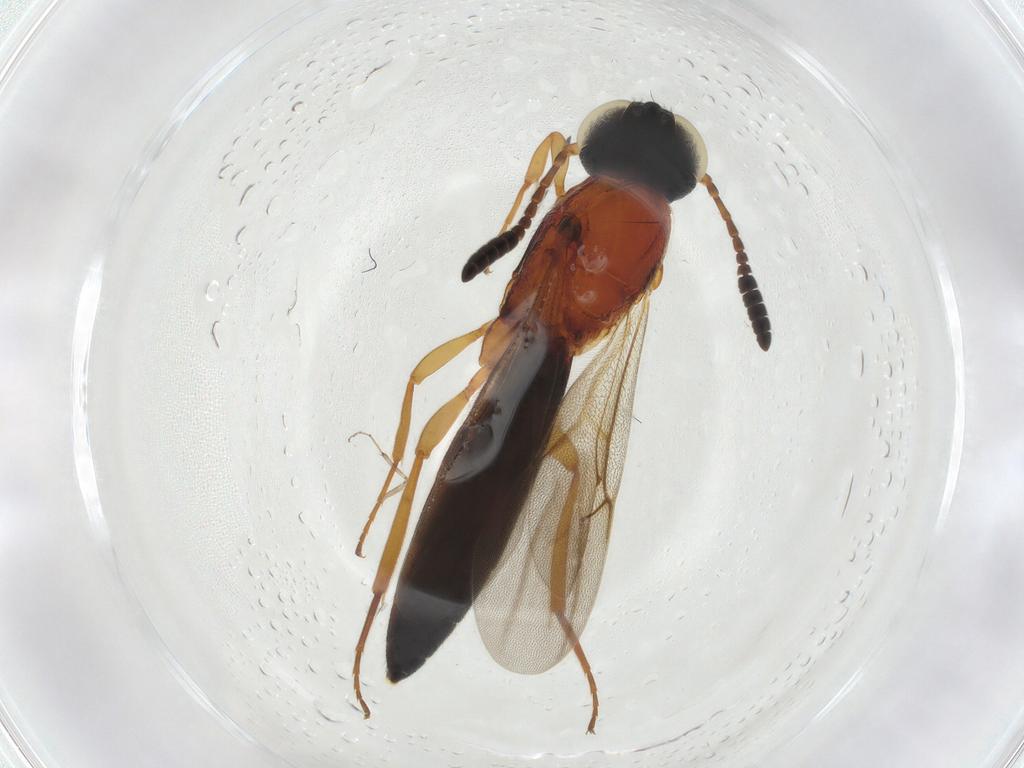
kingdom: Animalia
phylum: Arthropoda
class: Insecta
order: Hymenoptera
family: Scelionidae
